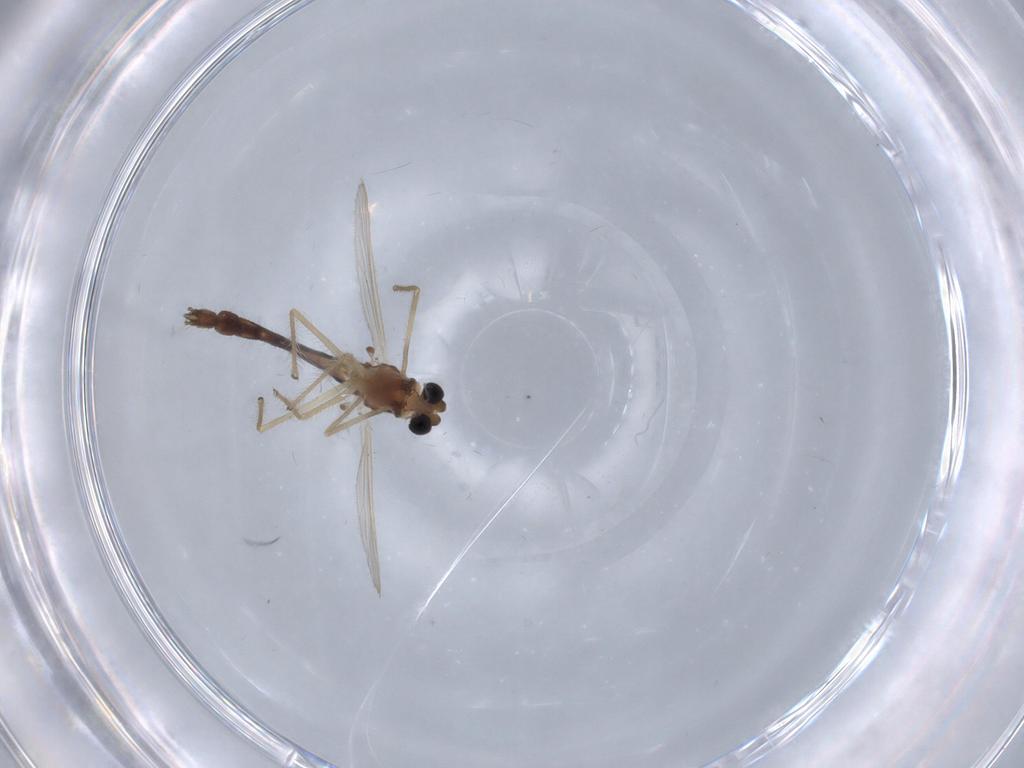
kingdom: Animalia
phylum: Arthropoda
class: Insecta
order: Diptera
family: Chironomidae
